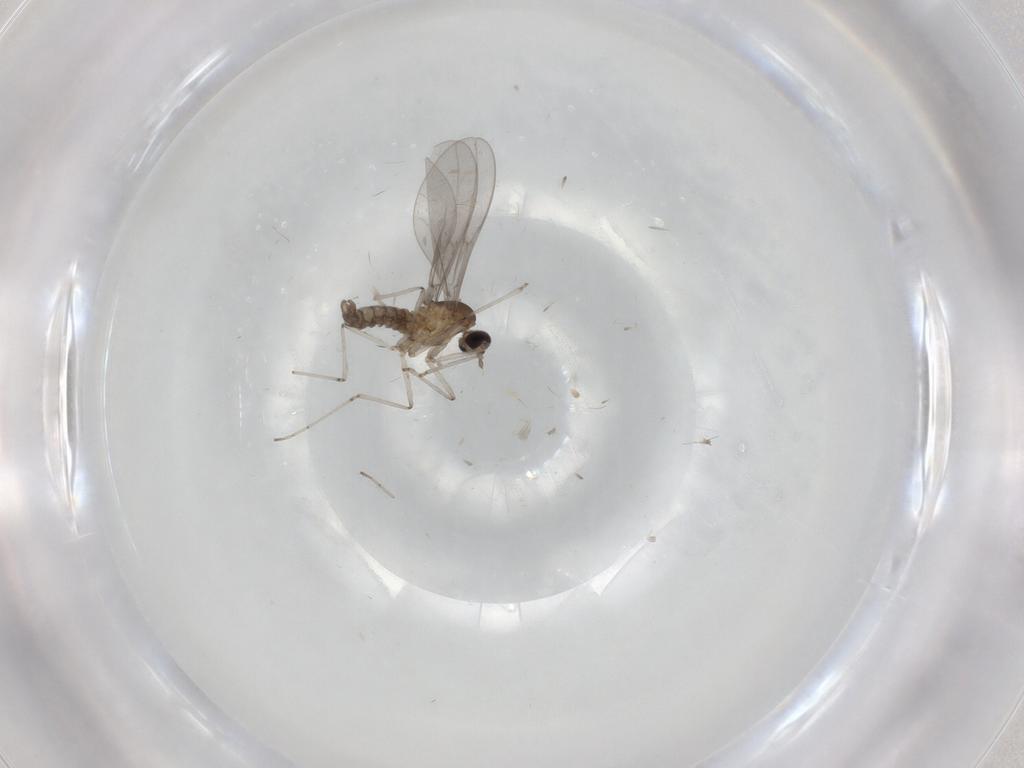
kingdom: Animalia
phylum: Arthropoda
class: Insecta
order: Diptera
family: Cecidomyiidae
